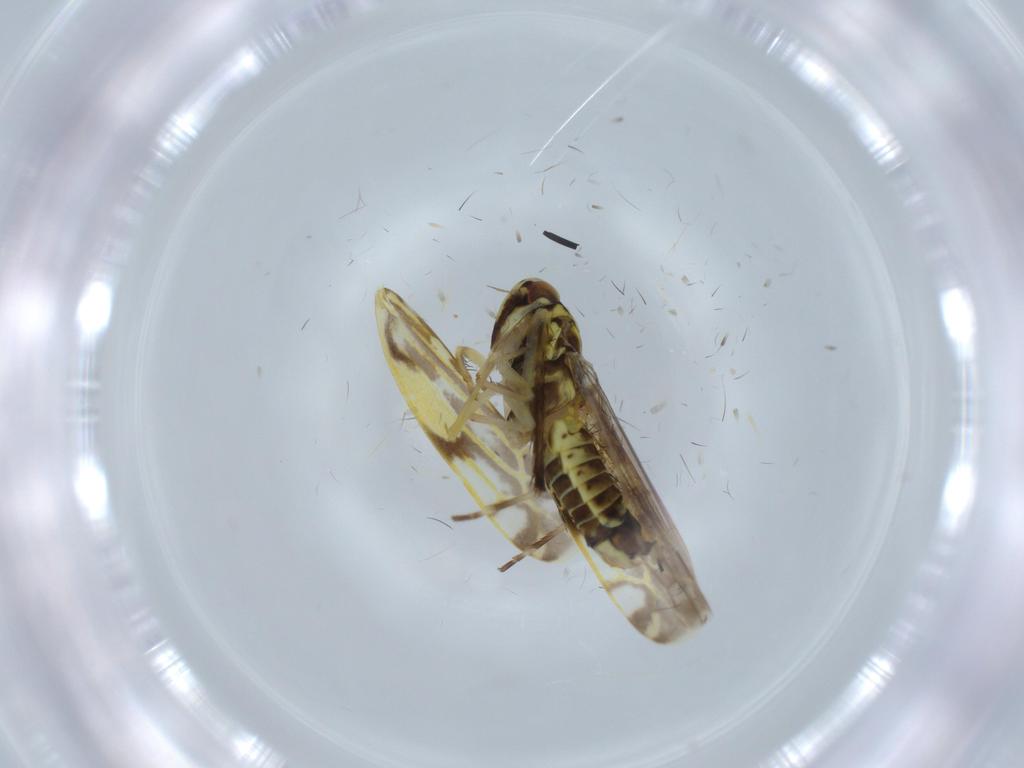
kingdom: Animalia
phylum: Arthropoda
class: Insecta
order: Hemiptera
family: Cicadellidae
